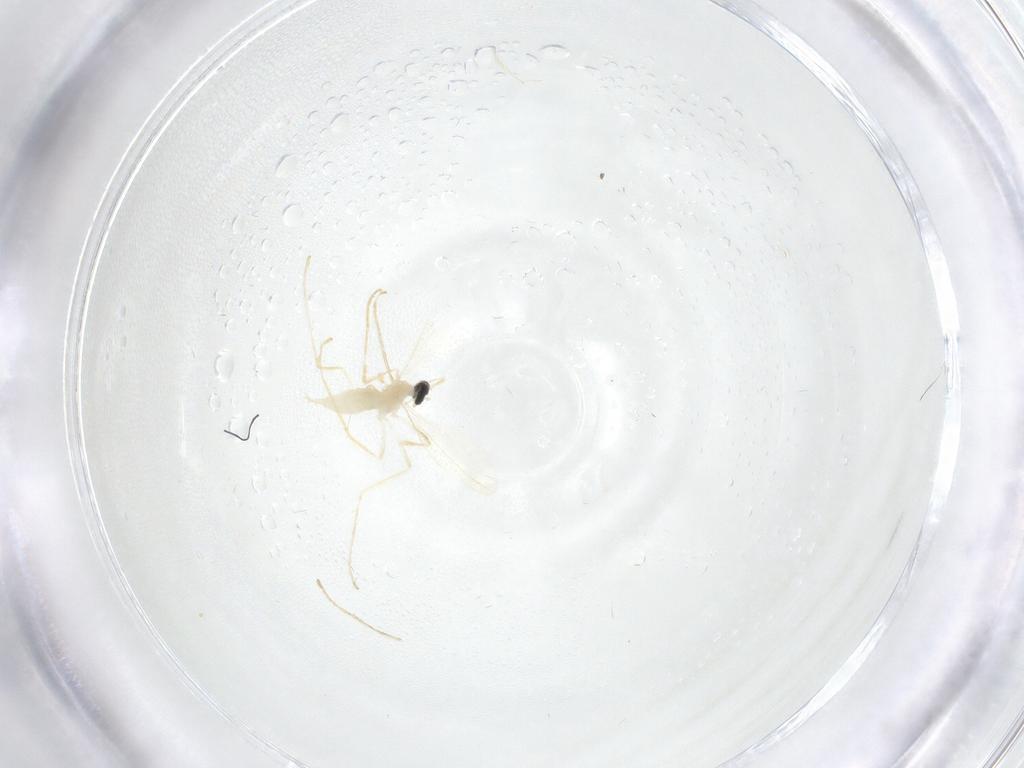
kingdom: Animalia
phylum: Arthropoda
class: Insecta
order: Diptera
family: Cecidomyiidae
